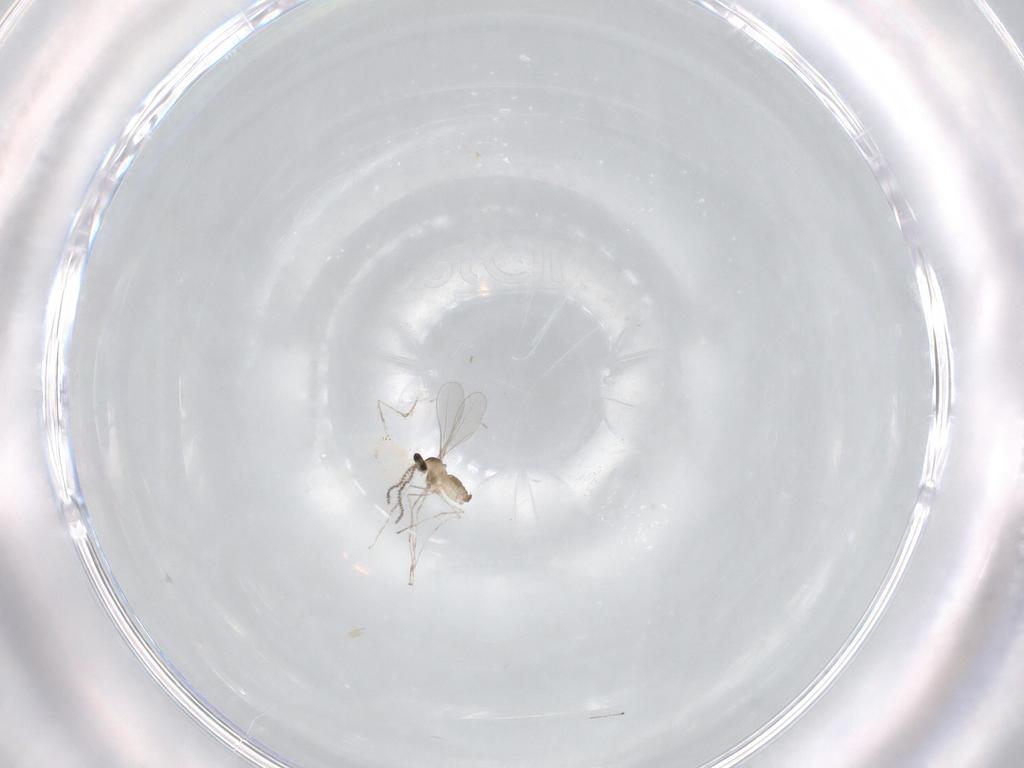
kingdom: Animalia
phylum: Arthropoda
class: Insecta
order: Diptera
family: Cecidomyiidae
